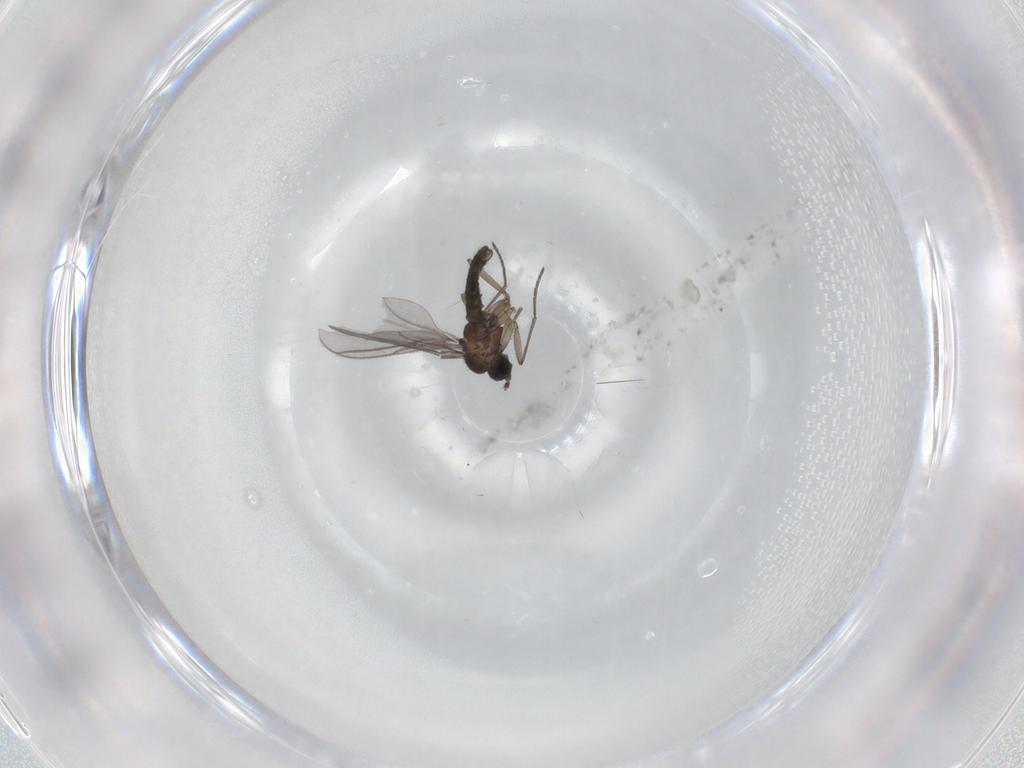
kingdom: Animalia
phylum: Arthropoda
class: Insecta
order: Diptera
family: Sciaridae
